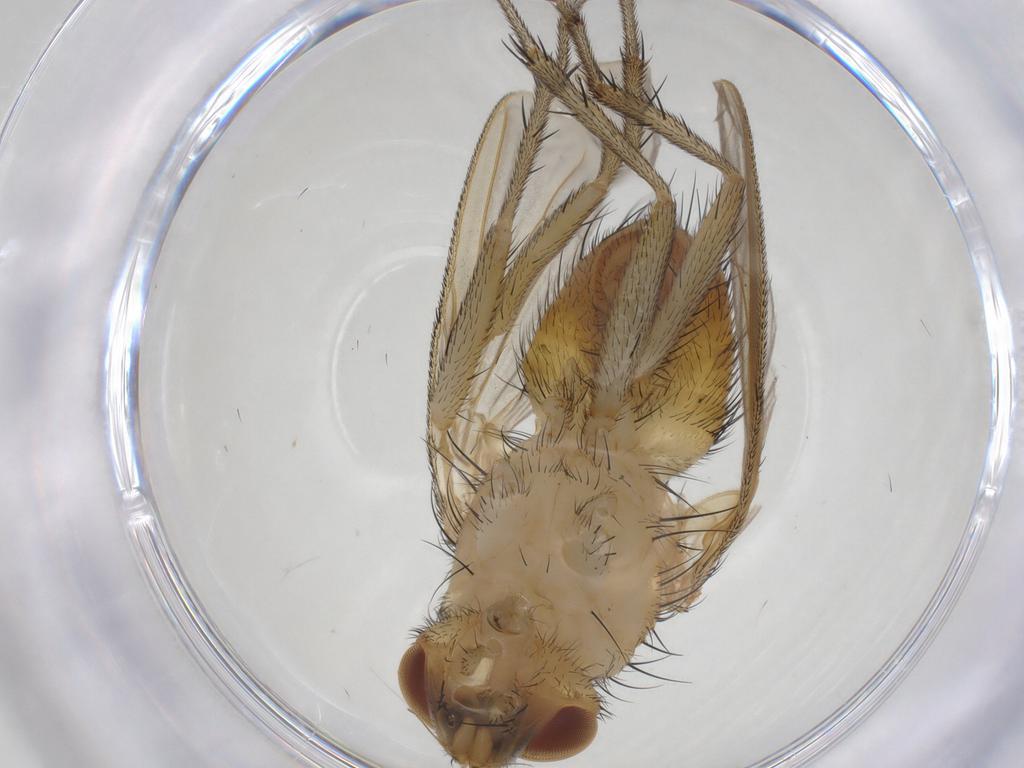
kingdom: Animalia
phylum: Arthropoda
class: Insecta
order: Diptera
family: Tachinidae
